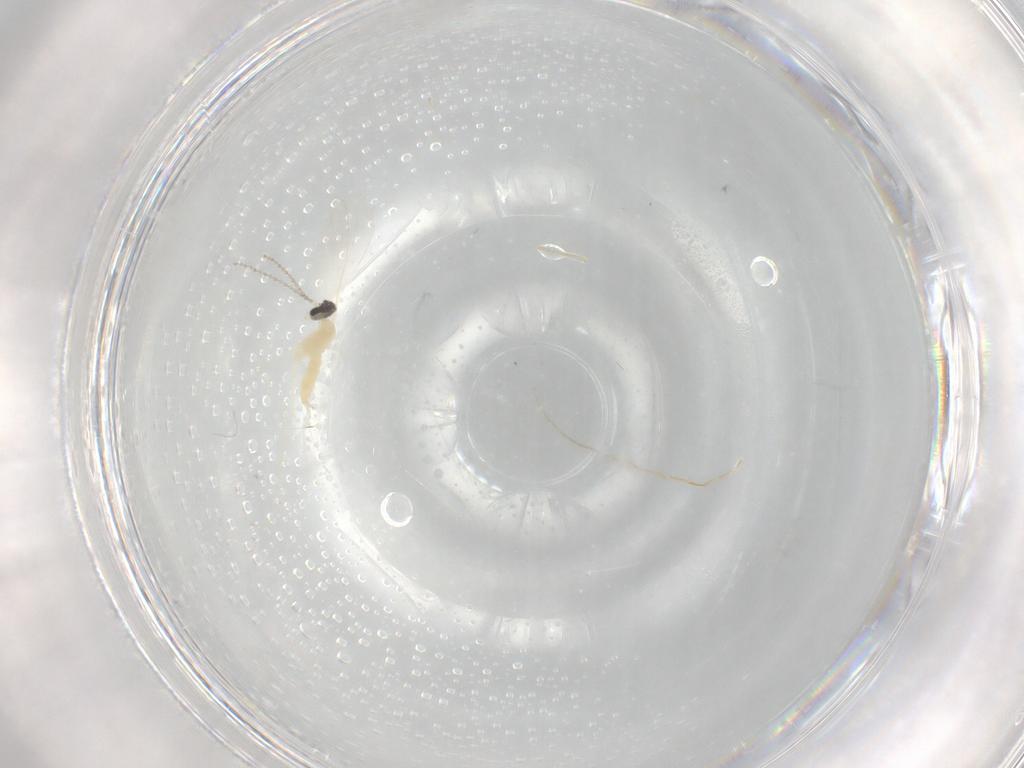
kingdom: Animalia
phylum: Arthropoda
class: Insecta
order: Diptera
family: Cecidomyiidae
